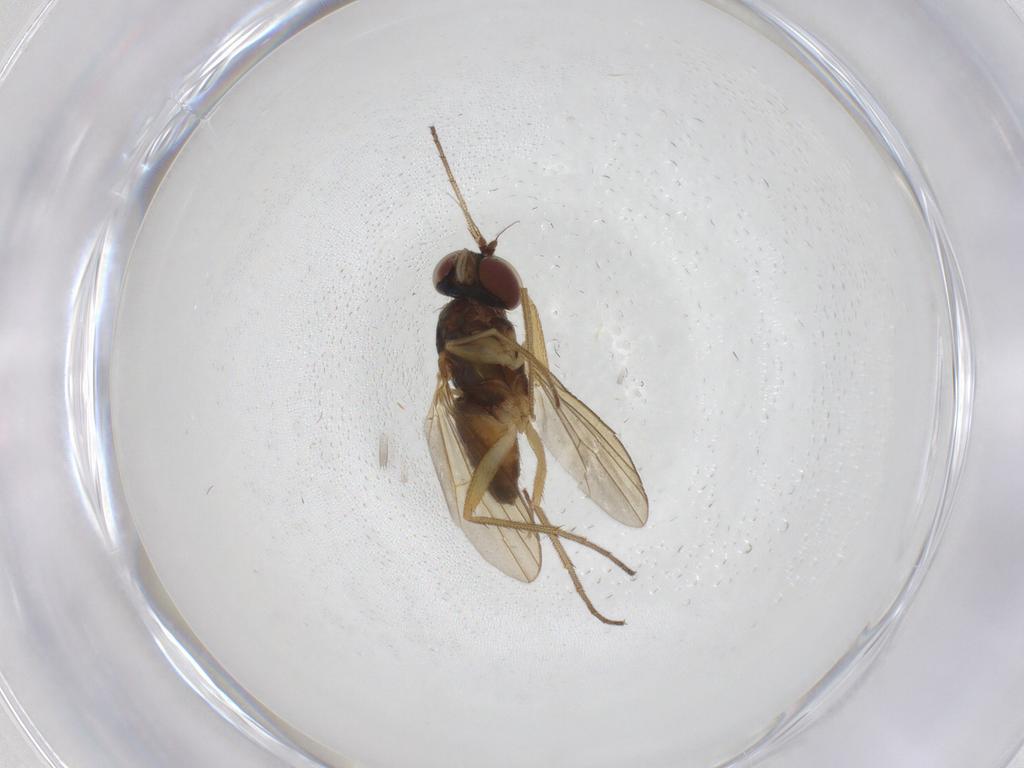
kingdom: Animalia
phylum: Arthropoda
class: Insecta
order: Diptera
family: Dolichopodidae
